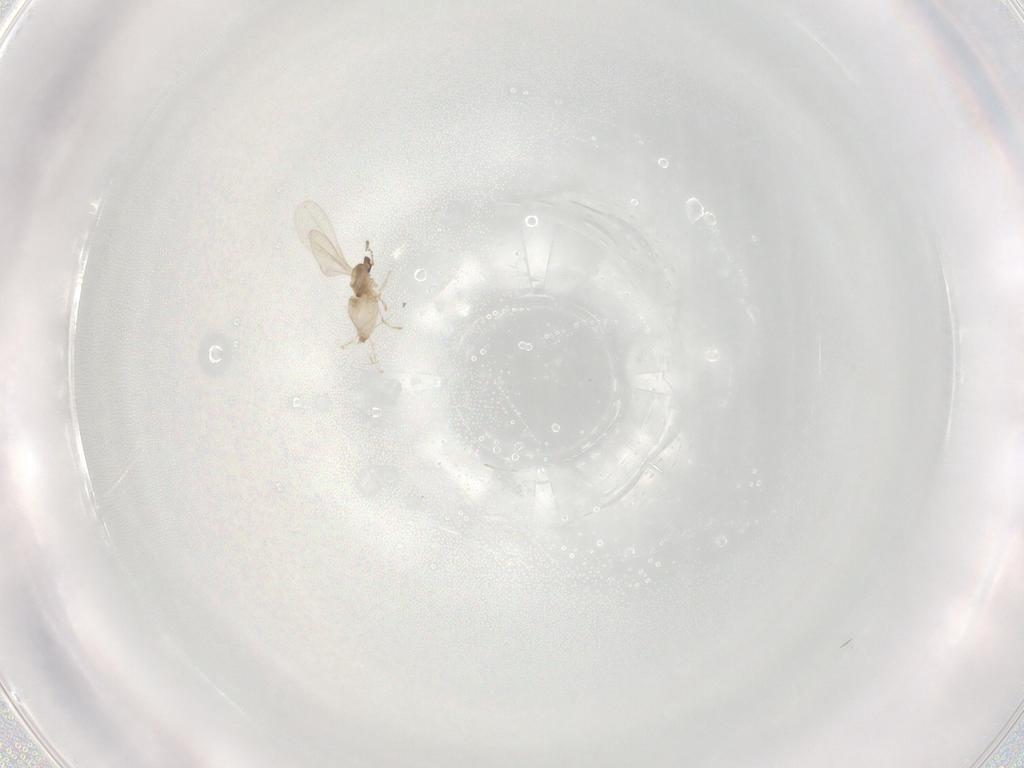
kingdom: Animalia
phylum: Arthropoda
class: Insecta
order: Diptera
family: Cecidomyiidae
